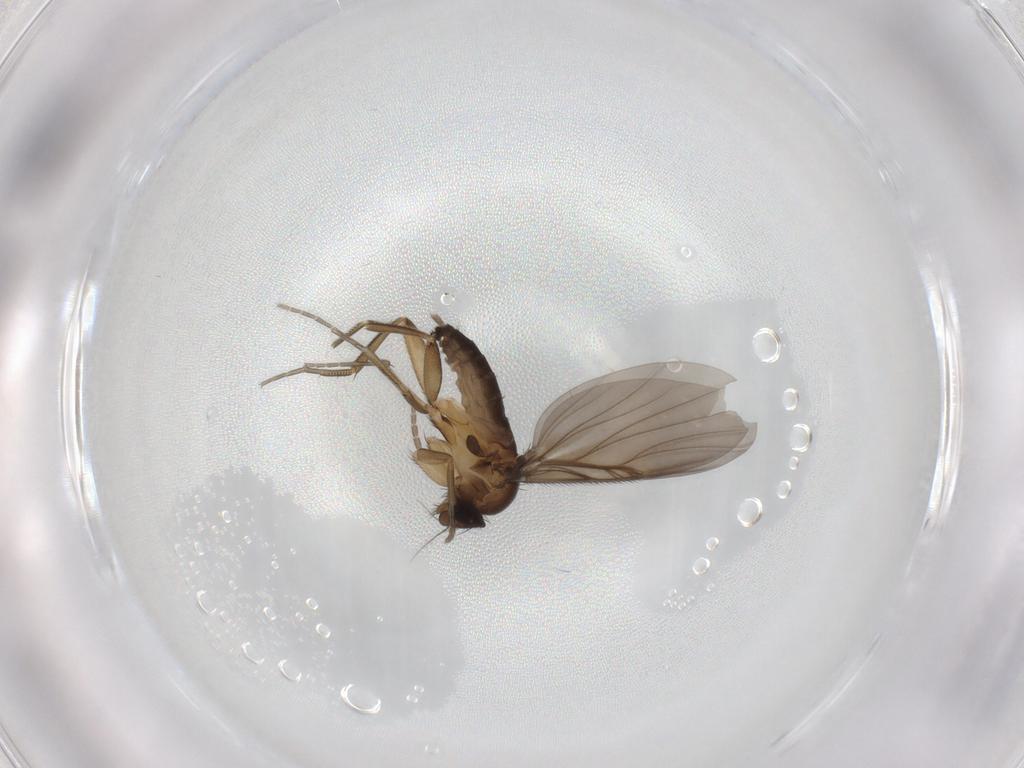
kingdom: Animalia
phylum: Arthropoda
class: Insecta
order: Diptera
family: Phoridae
